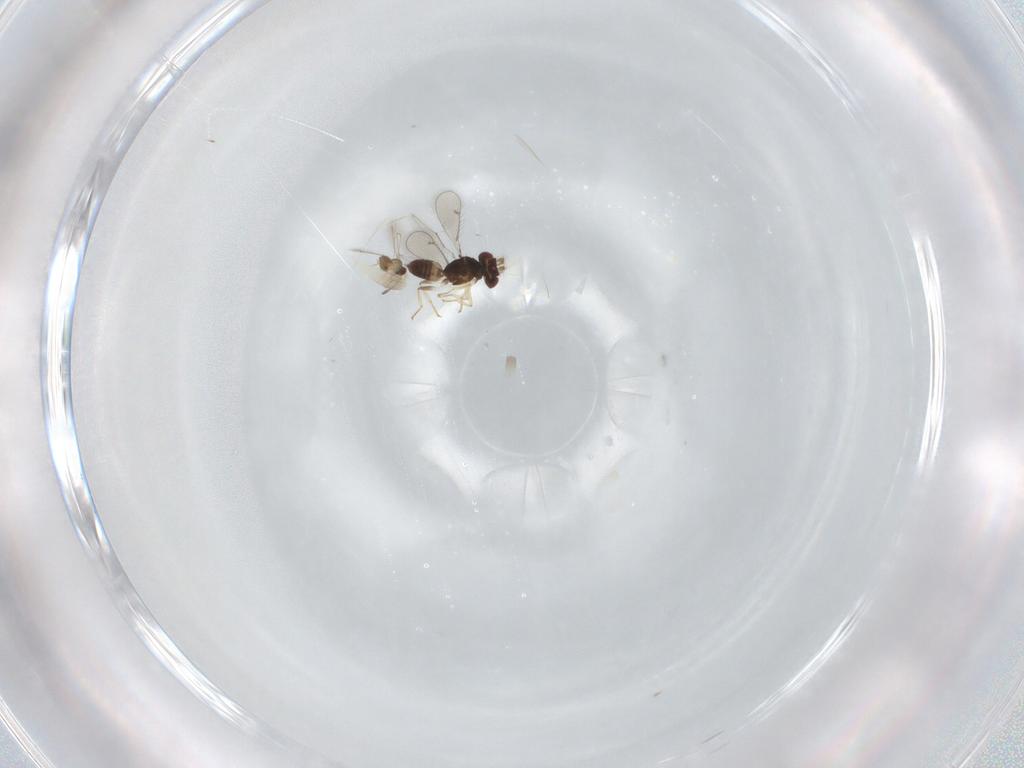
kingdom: Animalia
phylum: Arthropoda
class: Insecta
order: Hymenoptera
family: Eulophidae
